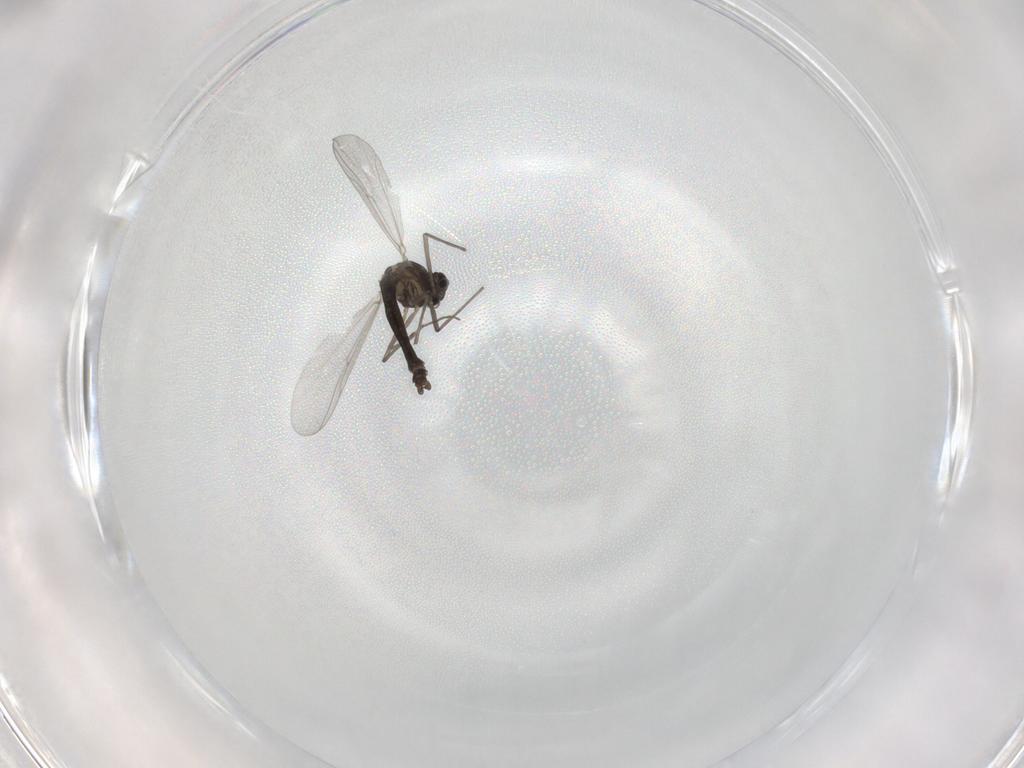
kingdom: Animalia
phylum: Arthropoda
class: Insecta
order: Diptera
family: Chironomidae
